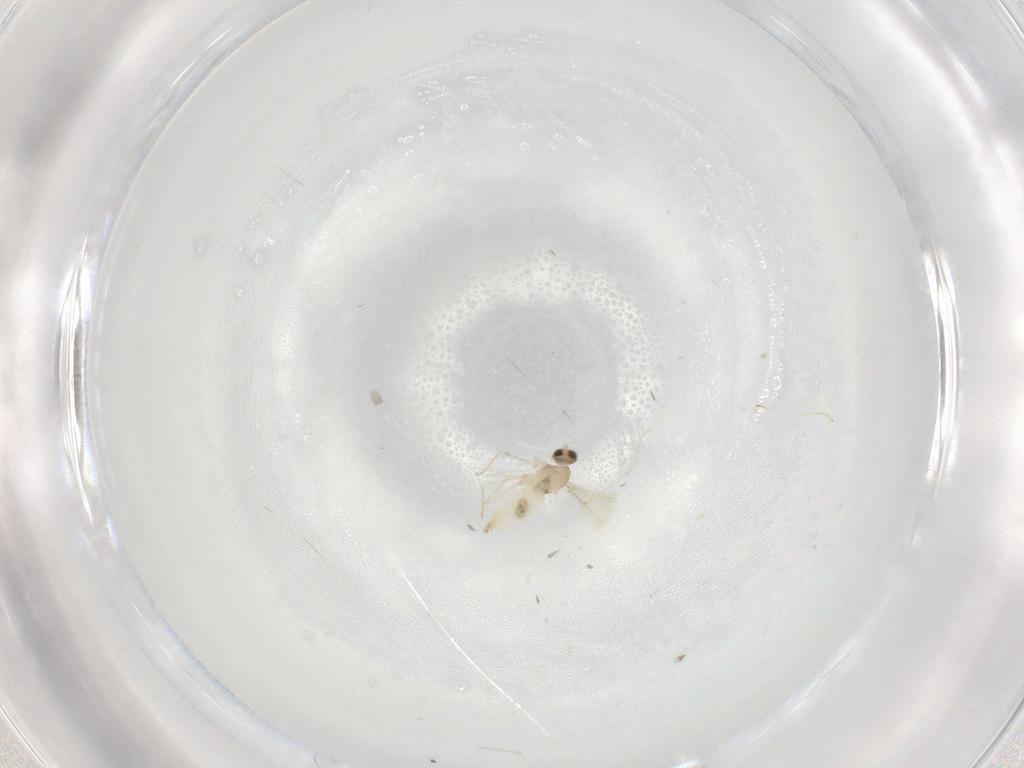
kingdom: Animalia
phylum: Arthropoda
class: Insecta
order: Diptera
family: Cecidomyiidae
